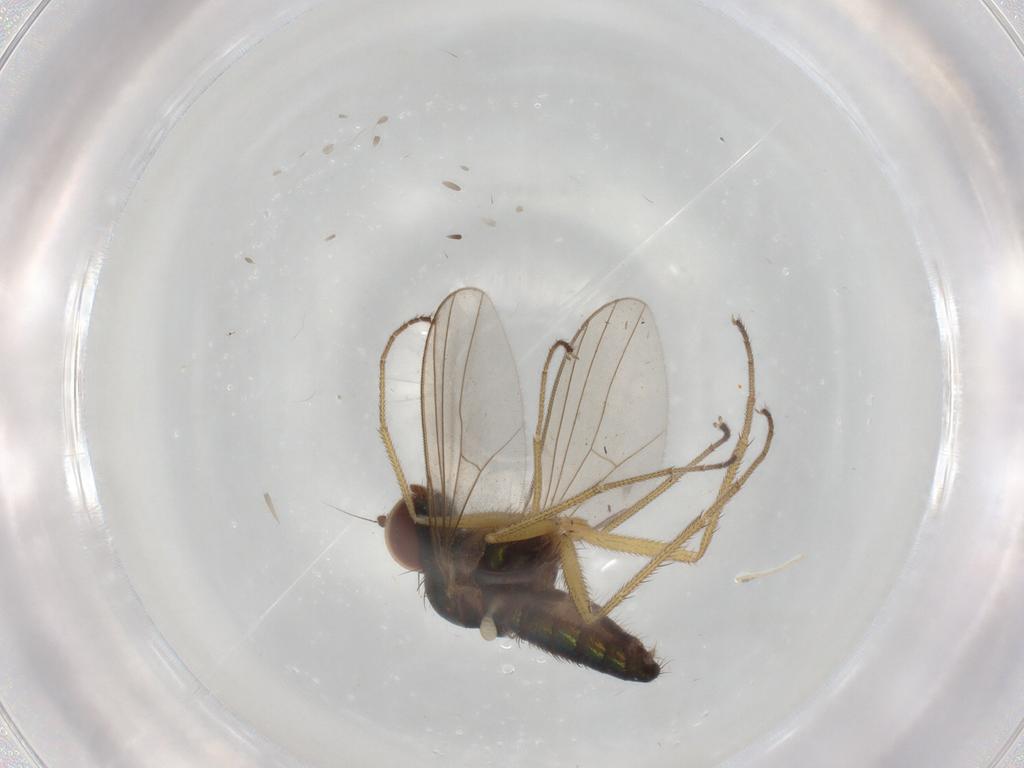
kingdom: Animalia
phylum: Arthropoda
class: Insecta
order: Diptera
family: Dolichopodidae
